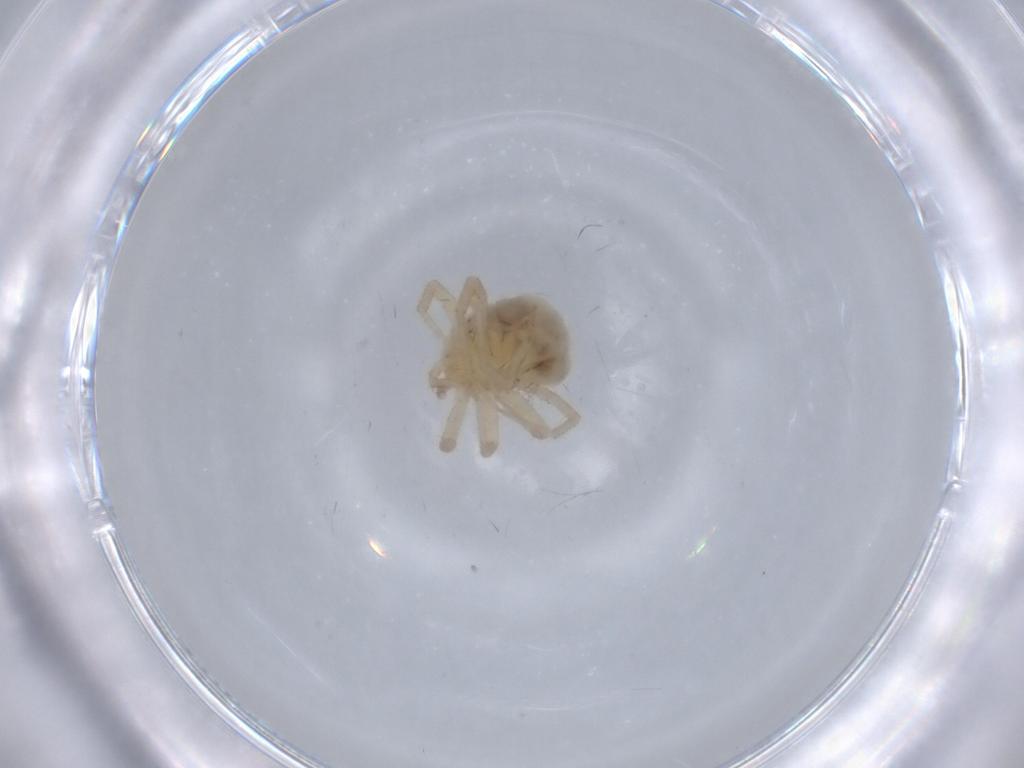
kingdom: Animalia
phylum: Arthropoda
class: Arachnida
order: Trombidiformes
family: Anystidae
